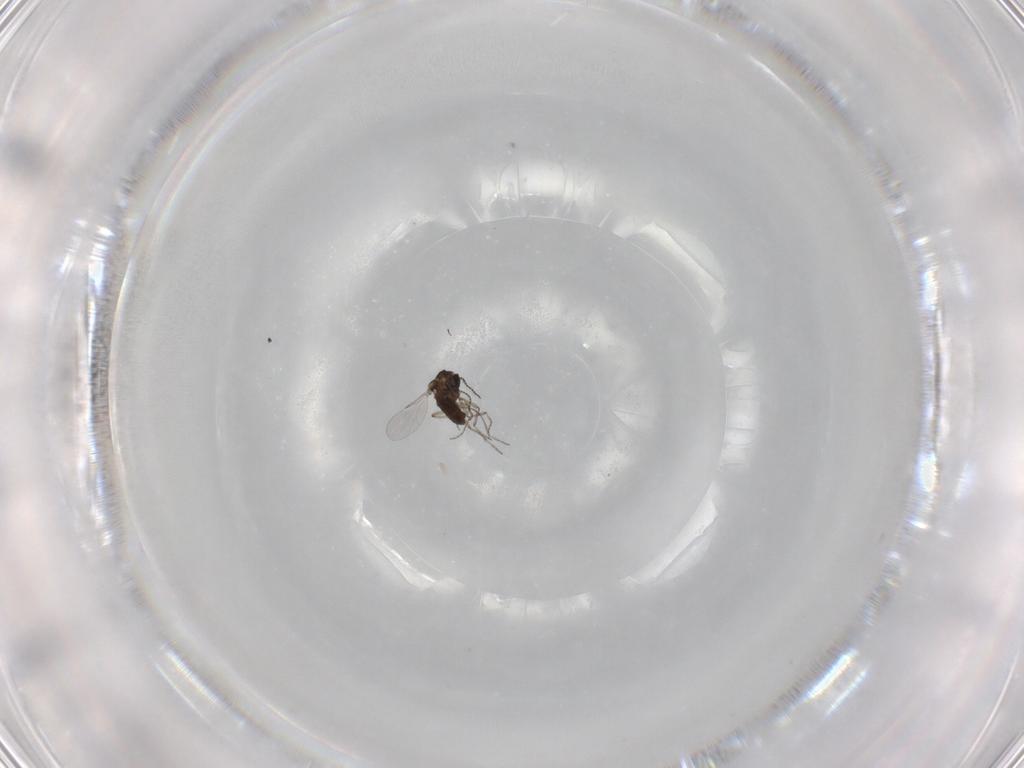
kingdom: Animalia
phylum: Arthropoda
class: Insecta
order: Diptera
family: Ceratopogonidae
